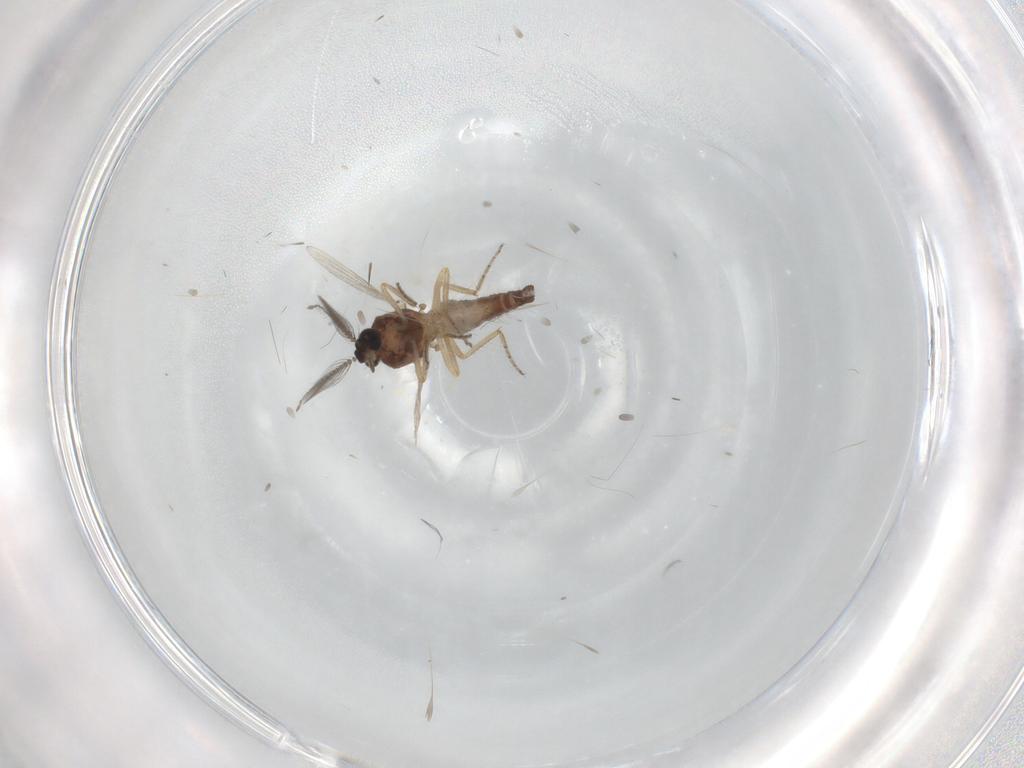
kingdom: Animalia
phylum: Arthropoda
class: Insecta
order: Diptera
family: Ceratopogonidae
